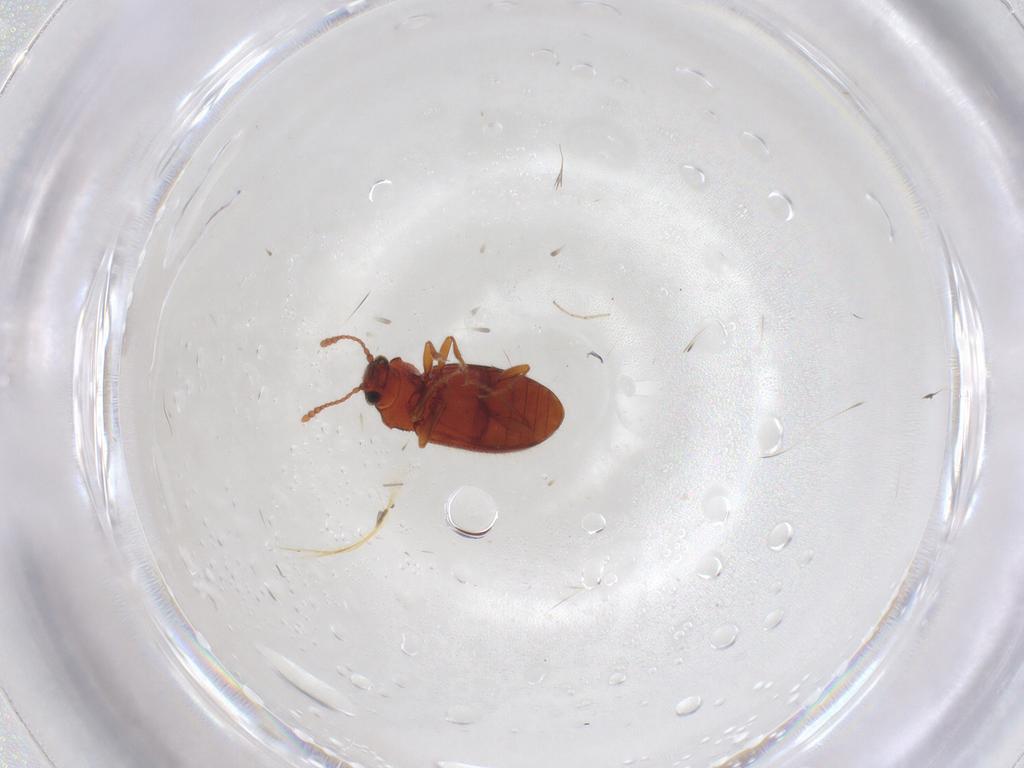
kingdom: Animalia
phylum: Arthropoda
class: Insecta
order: Coleoptera
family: Cryptophagidae
